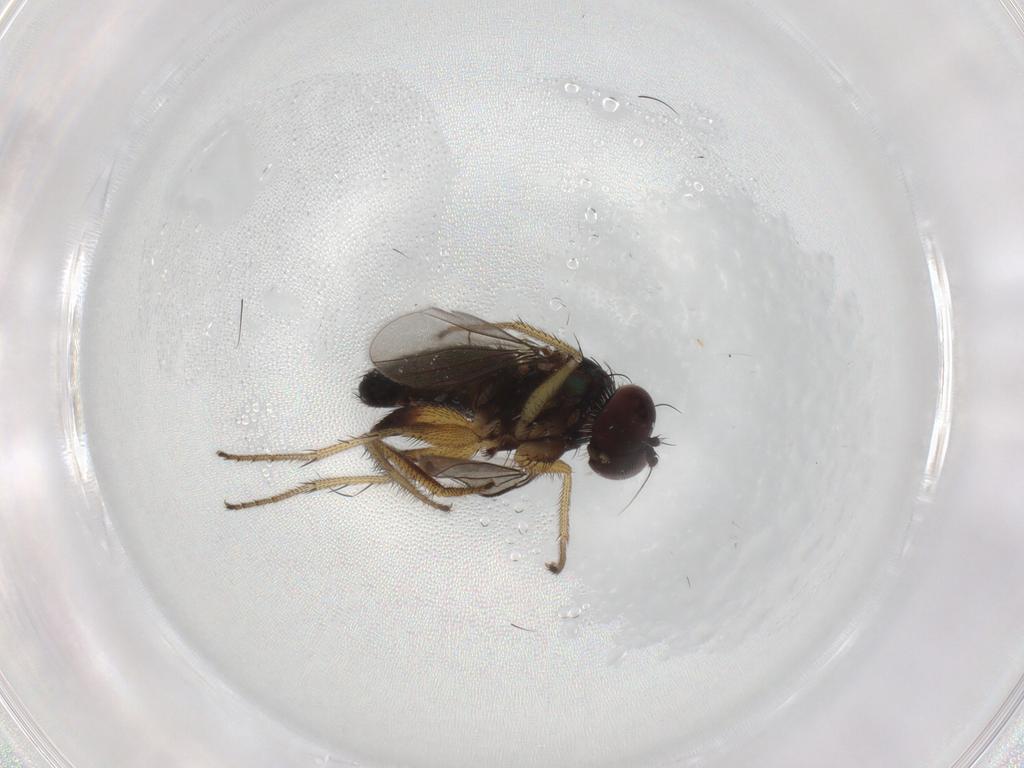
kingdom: Animalia
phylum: Arthropoda
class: Insecta
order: Diptera
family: Dolichopodidae
